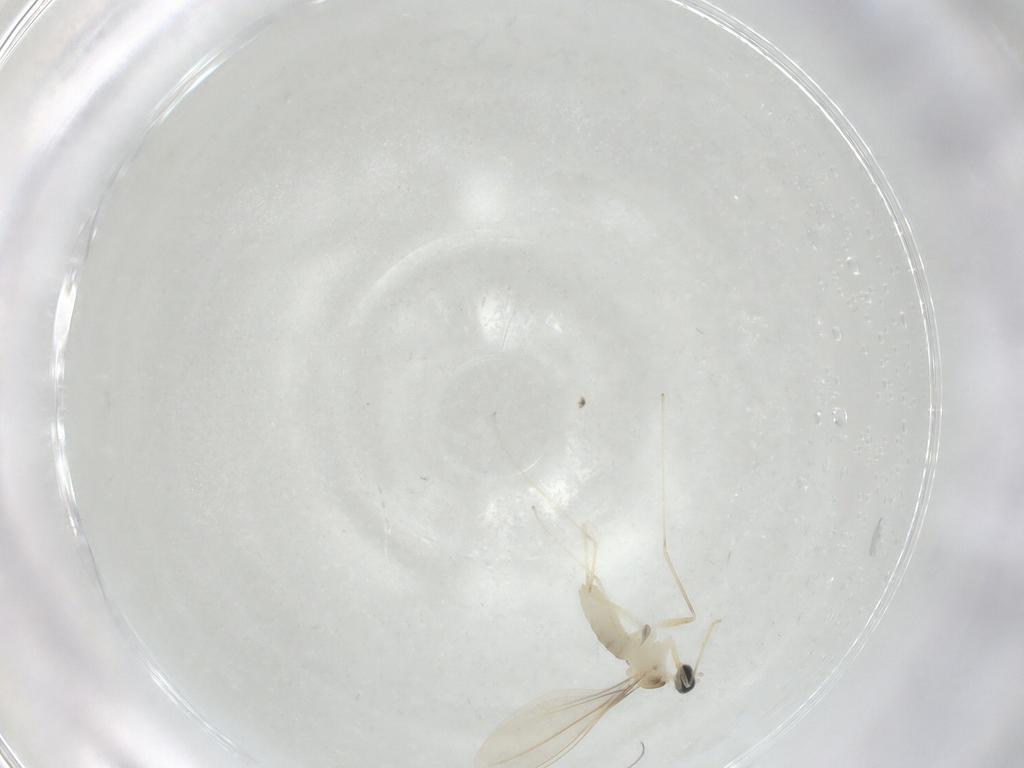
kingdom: Animalia
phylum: Arthropoda
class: Insecta
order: Diptera
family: Cecidomyiidae
